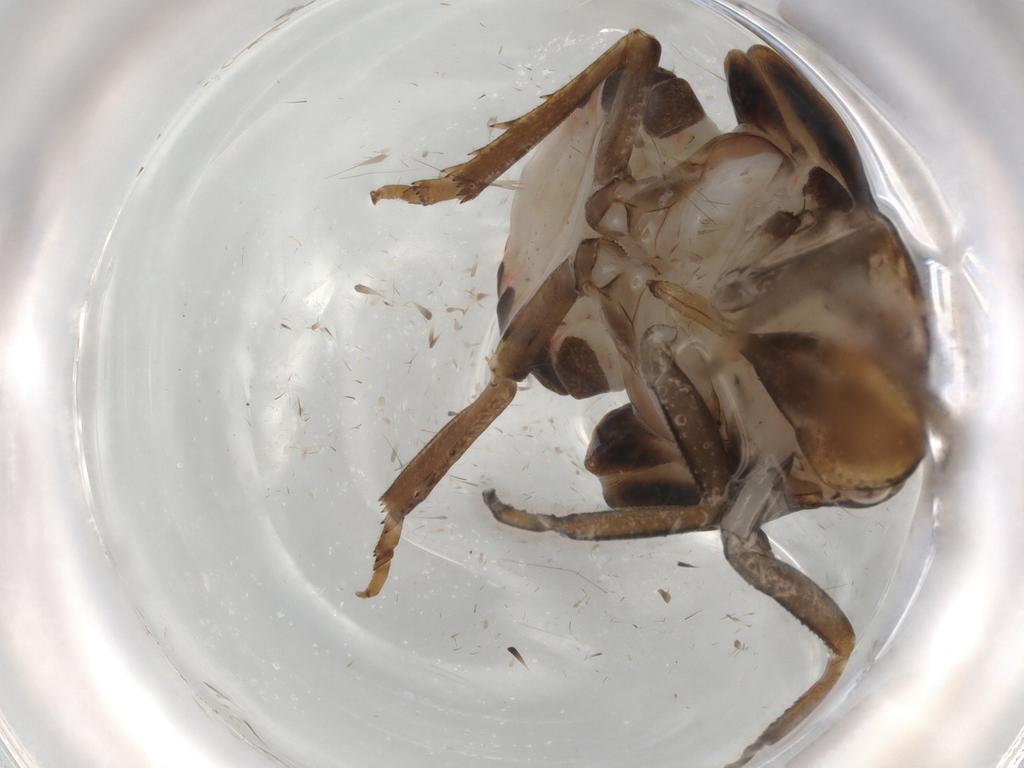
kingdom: Animalia
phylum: Arthropoda
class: Insecta
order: Hemiptera
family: Flatidae
